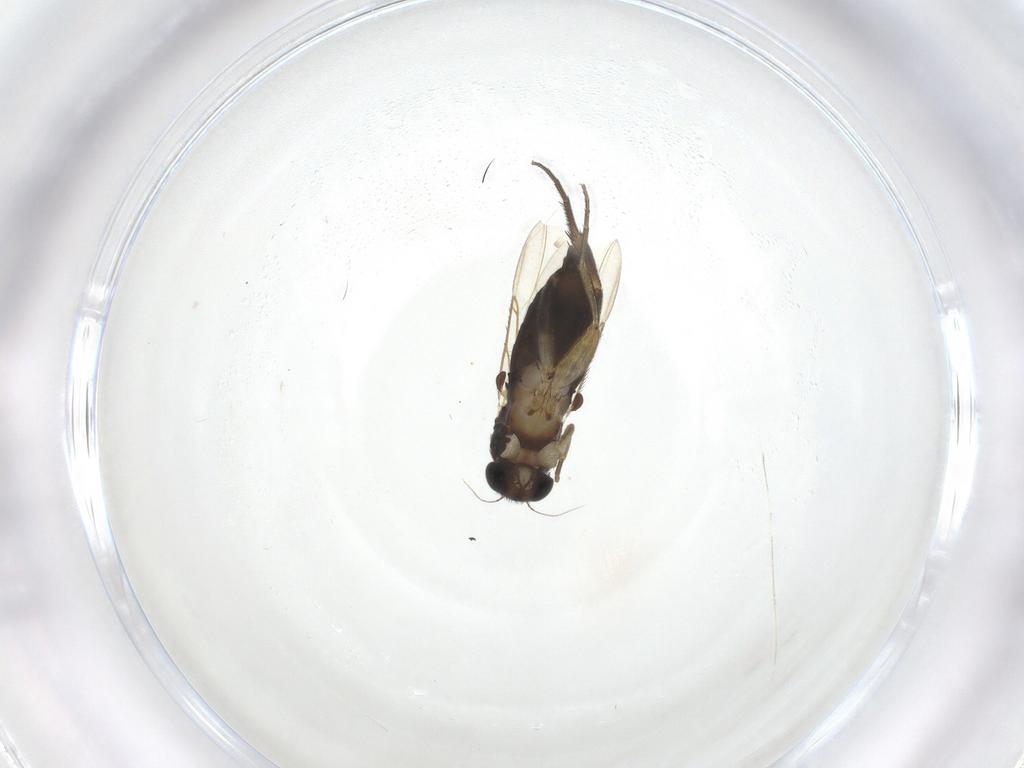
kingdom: Animalia
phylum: Arthropoda
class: Insecta
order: Diptera
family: Phoridae
